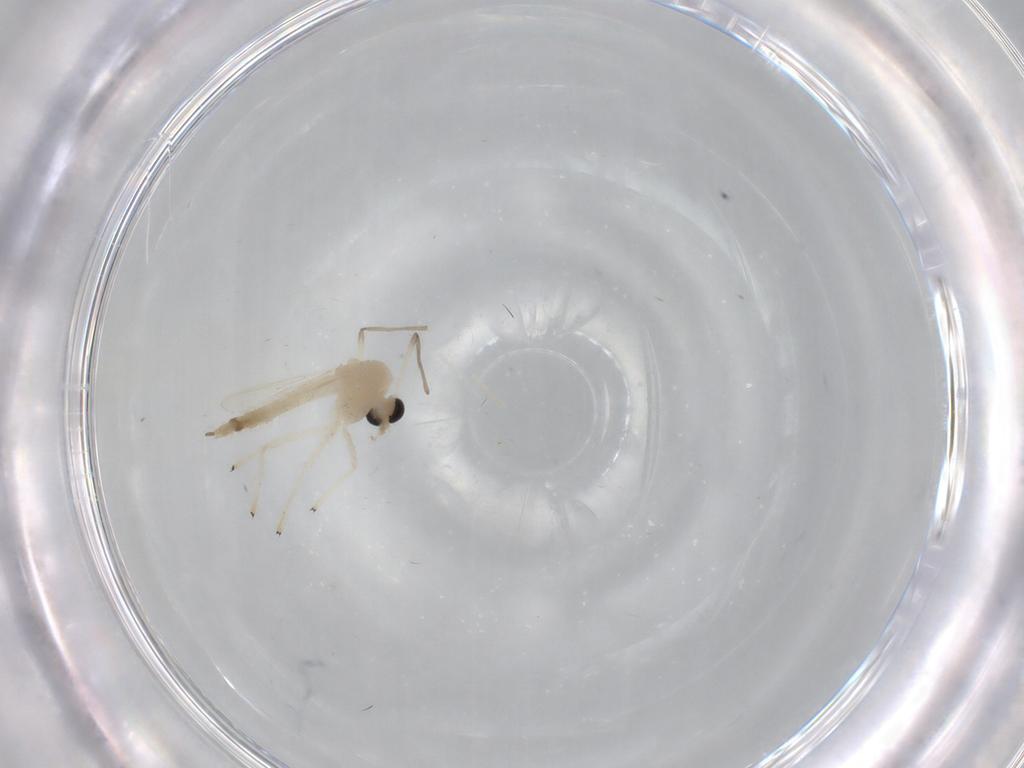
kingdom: Animalia
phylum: Arthropoda
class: Insecta
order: Diptera
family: Chironomidae
